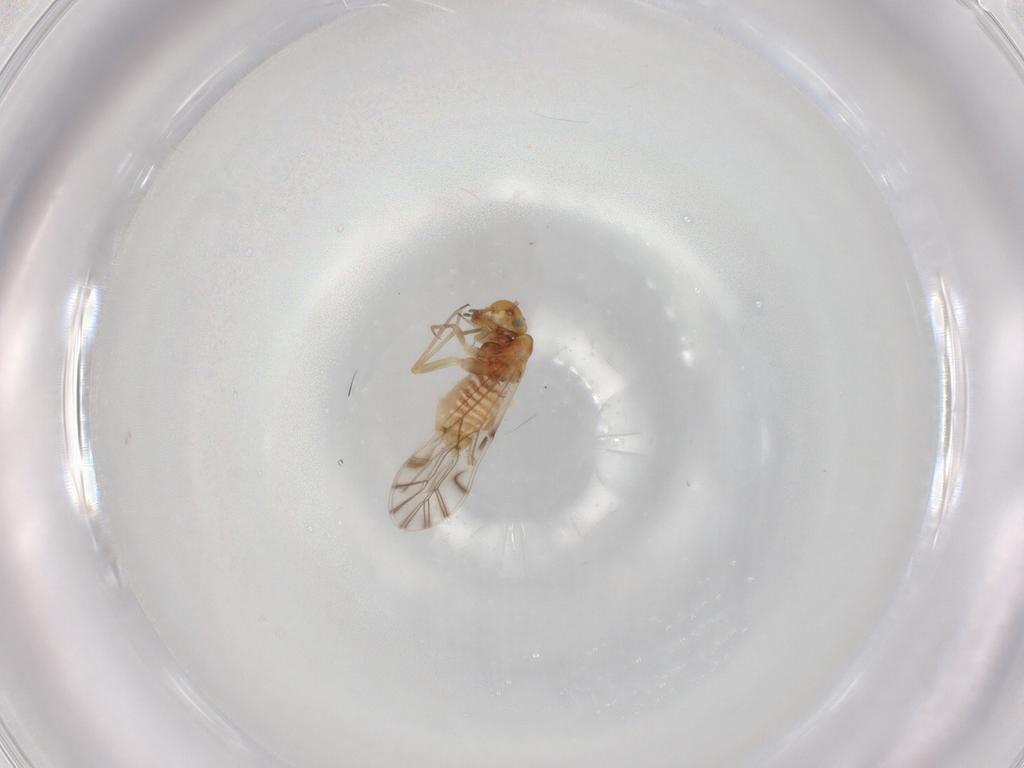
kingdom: Animalia
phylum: Arthropoda
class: Insecta
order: Psocodea
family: Lachesillidae
